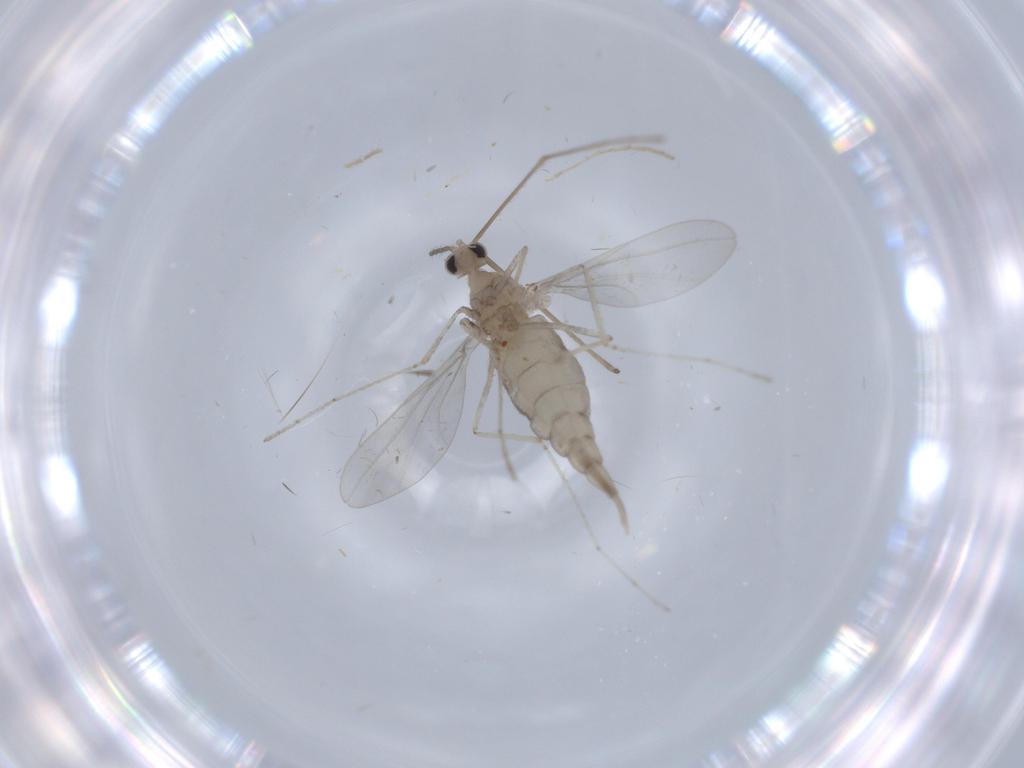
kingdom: Animalia
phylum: Arthropoda
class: Insecta
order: Diptera
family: Cecidomyiidae
